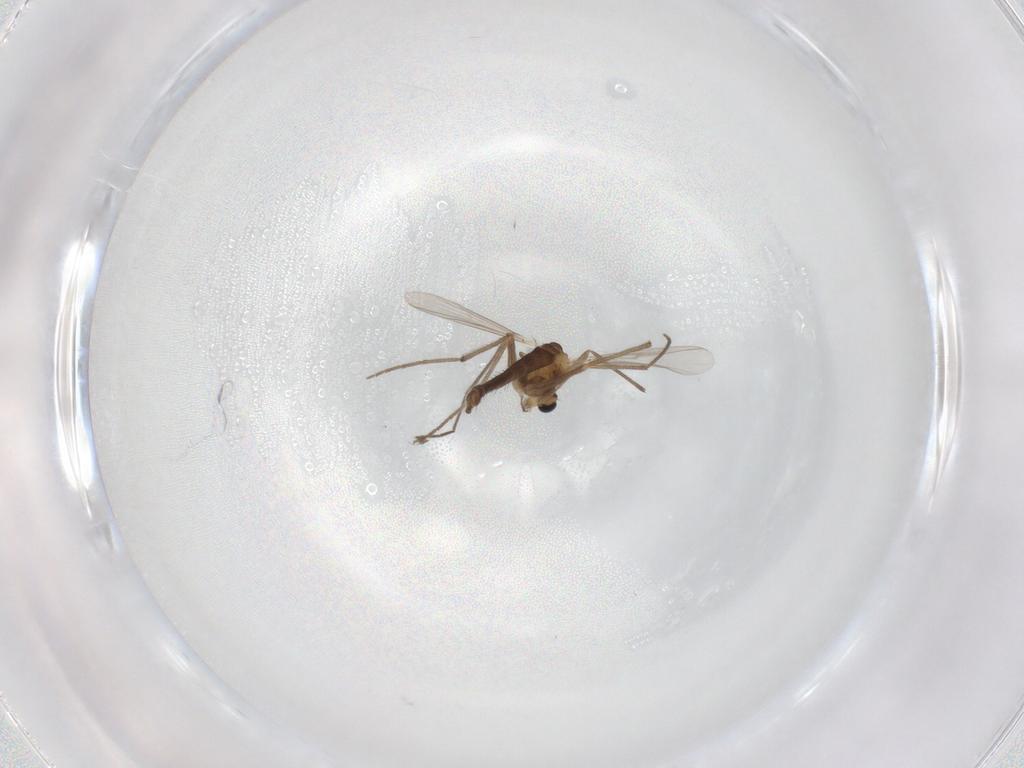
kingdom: Animalia
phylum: Arthropoda
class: Insecta
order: Diptera
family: Chironomidae
